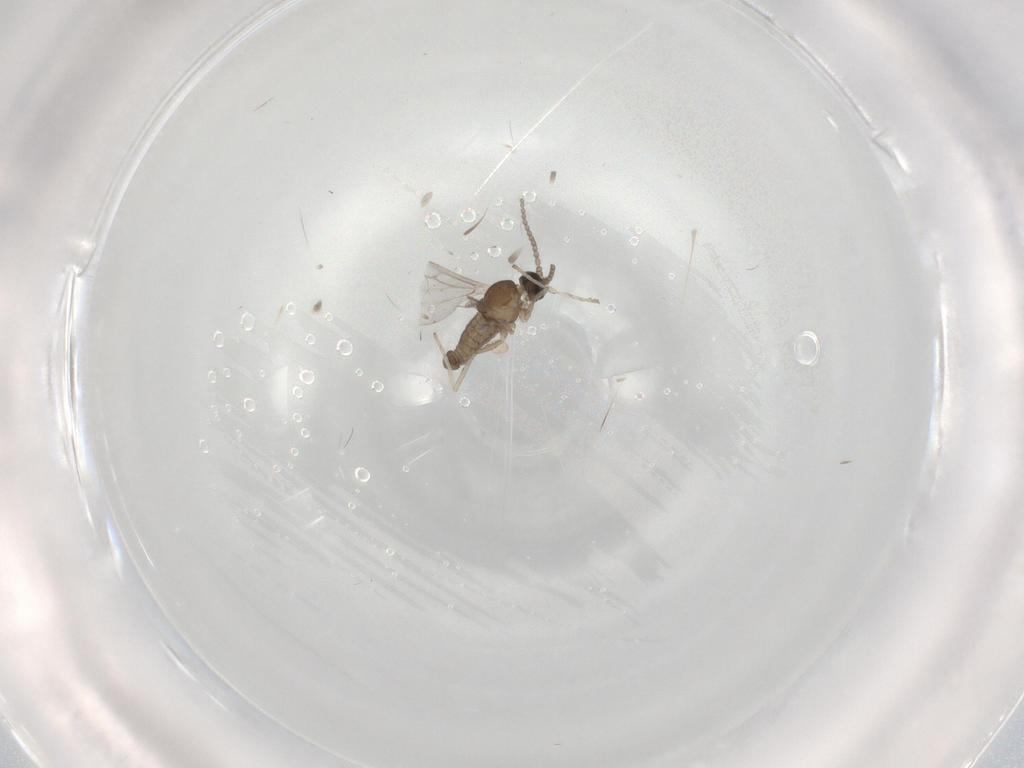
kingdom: Animalia
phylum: Arthropoda
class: Insecta
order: Diptera
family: Cecidomyiidae
